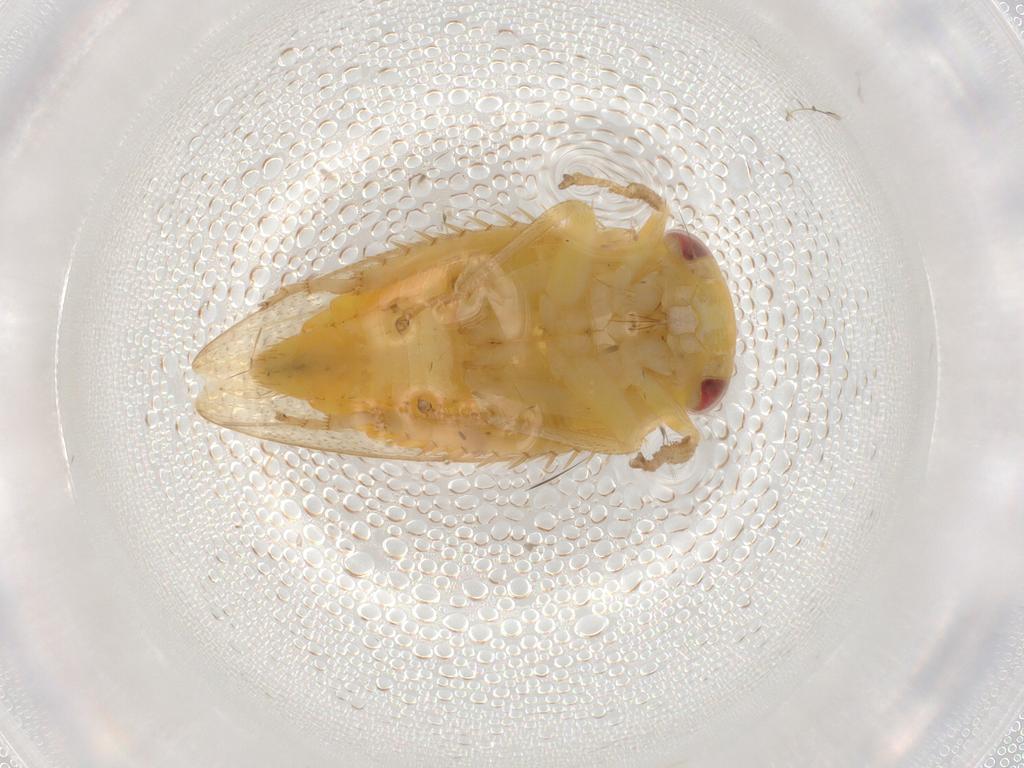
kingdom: Animalia
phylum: Arthropoda
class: Insecta
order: Hemiptera
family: Cicadellidae
